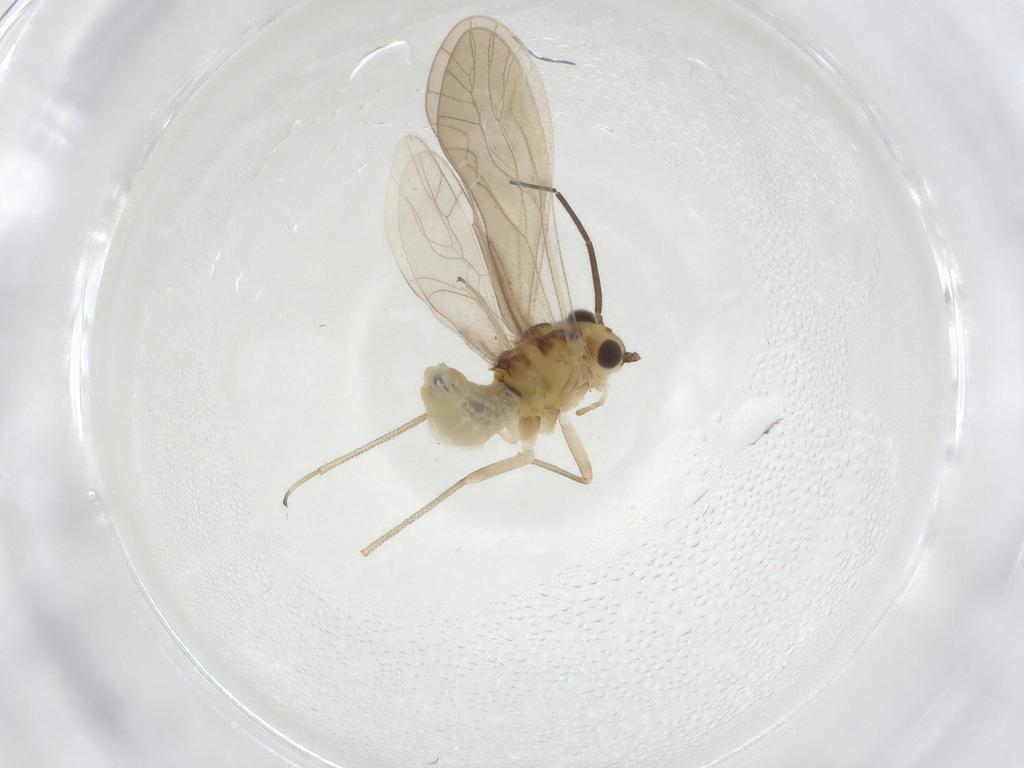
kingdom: Animalia
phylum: Arthropoda
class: Insecta
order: Psocodea
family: Caeciliusidae
